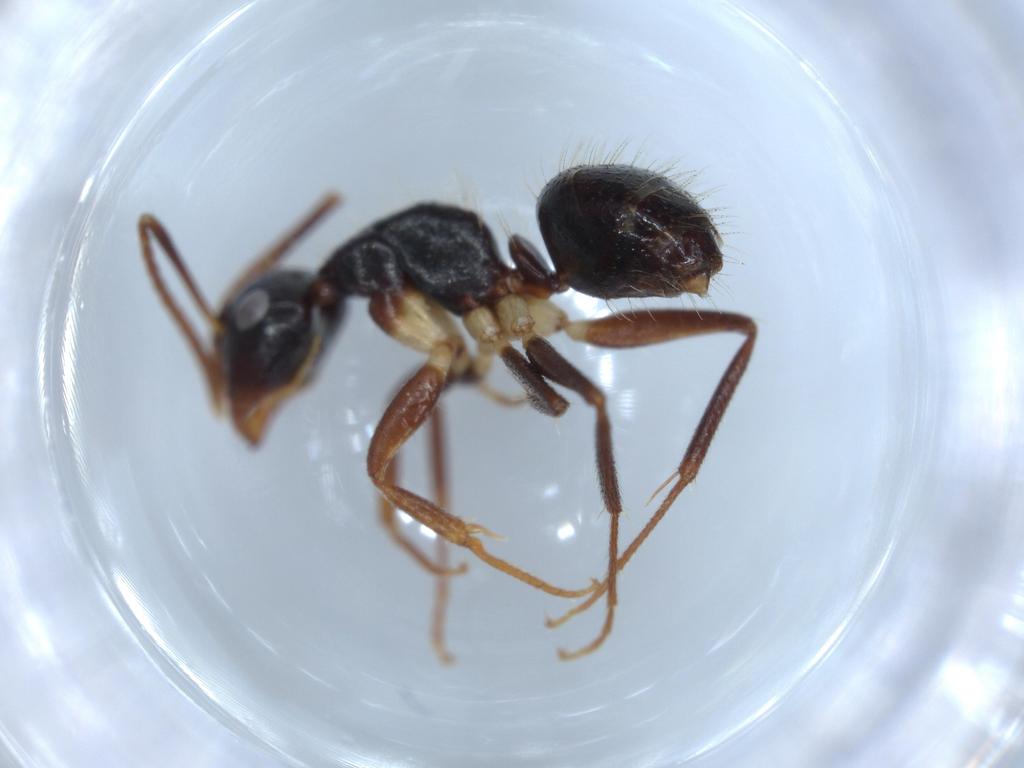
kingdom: Animalia
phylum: Arthropoda
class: Insecta
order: Hymenoptera
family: Formicidae
